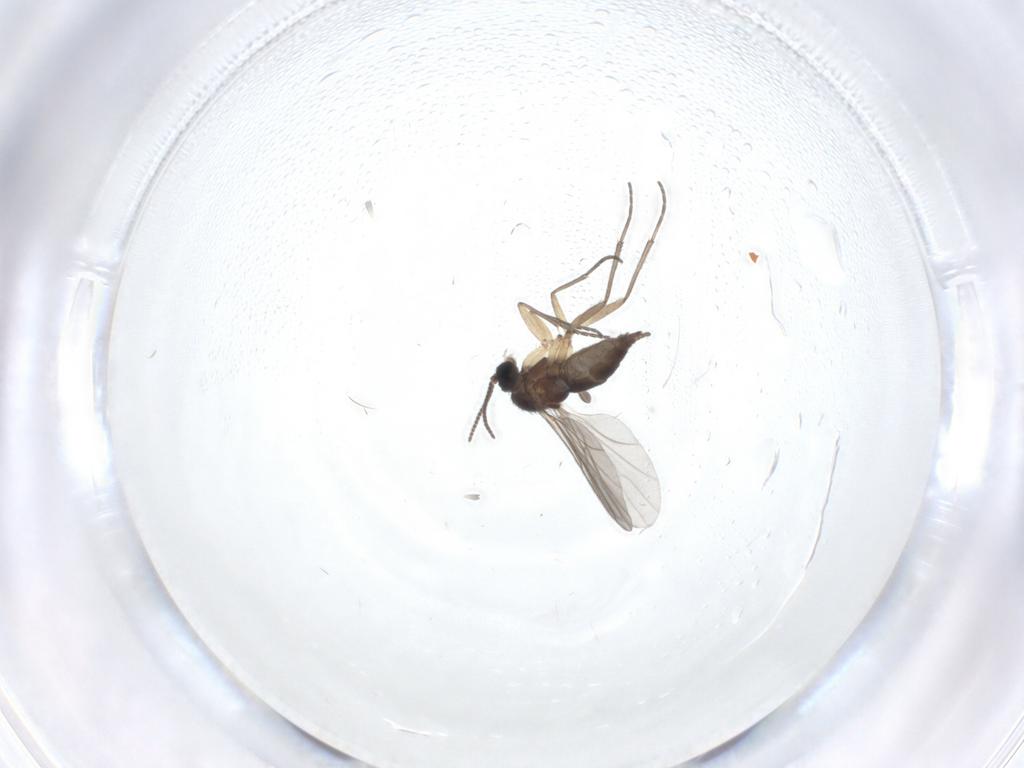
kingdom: Animalia
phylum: Arthropoda
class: Insecta
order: Diptera
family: Sciaridae
